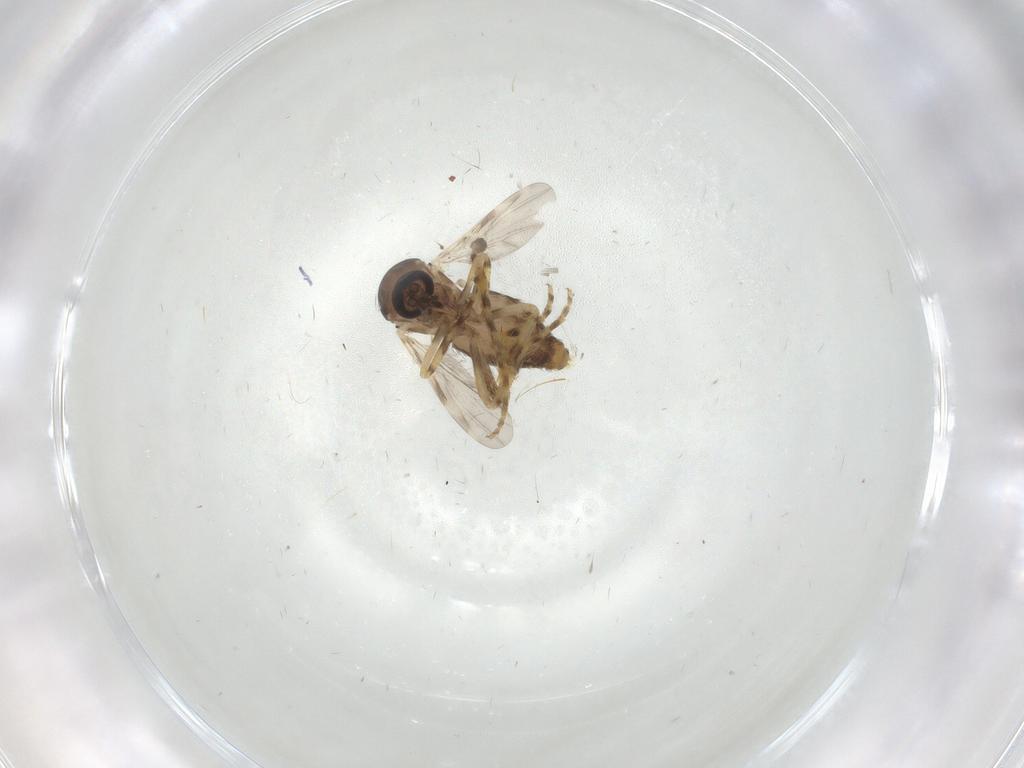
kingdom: Animalia
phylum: Arthropoda
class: Insecta
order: Diptera
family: Ceratopogonidae
